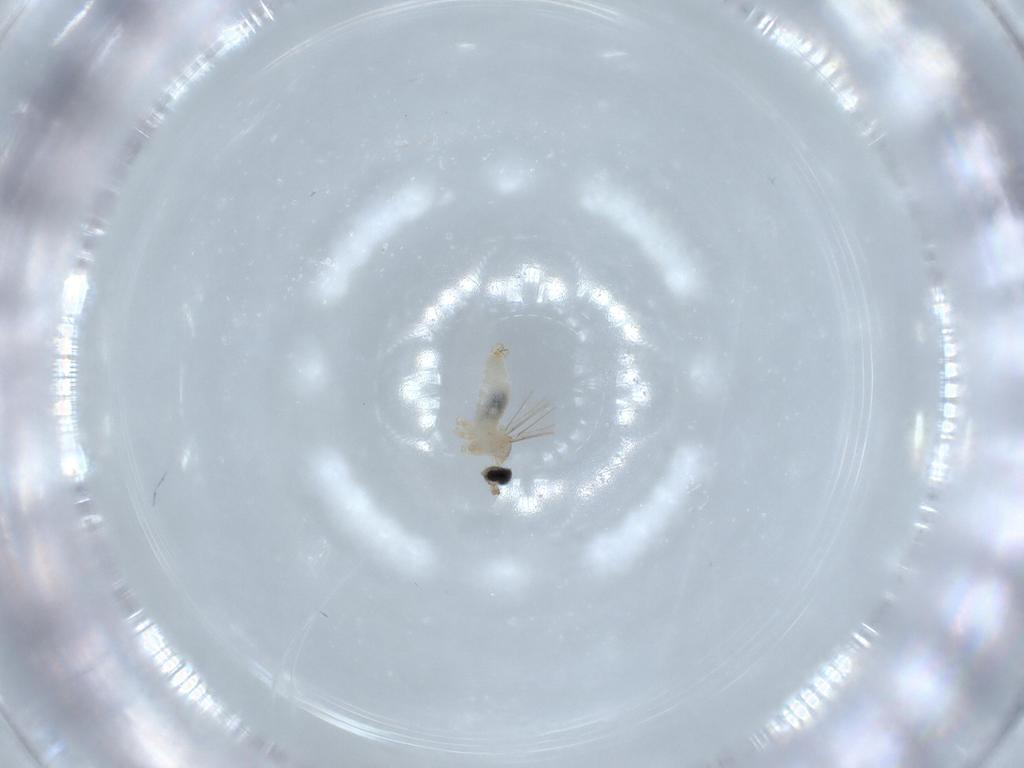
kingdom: Animalia
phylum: Arthropoda
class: Insecta
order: Diptera
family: Cecidomyiidae
